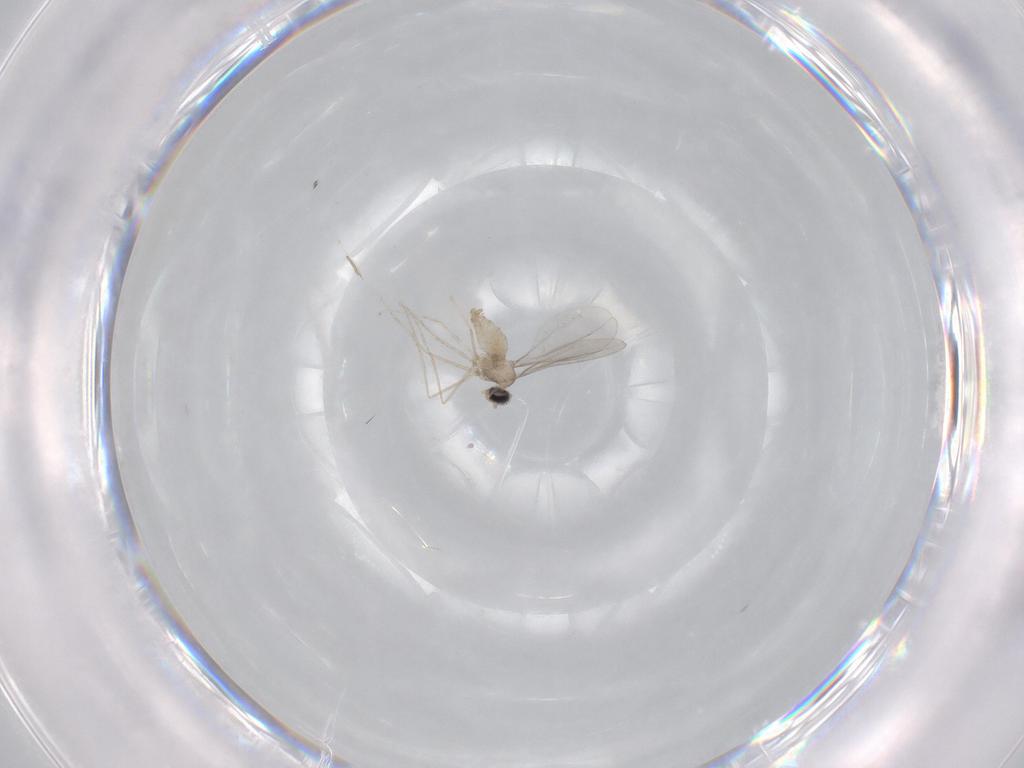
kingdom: Animalia
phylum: Arthropoda
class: Insecta
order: Diptera
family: Cecidomyiidae
